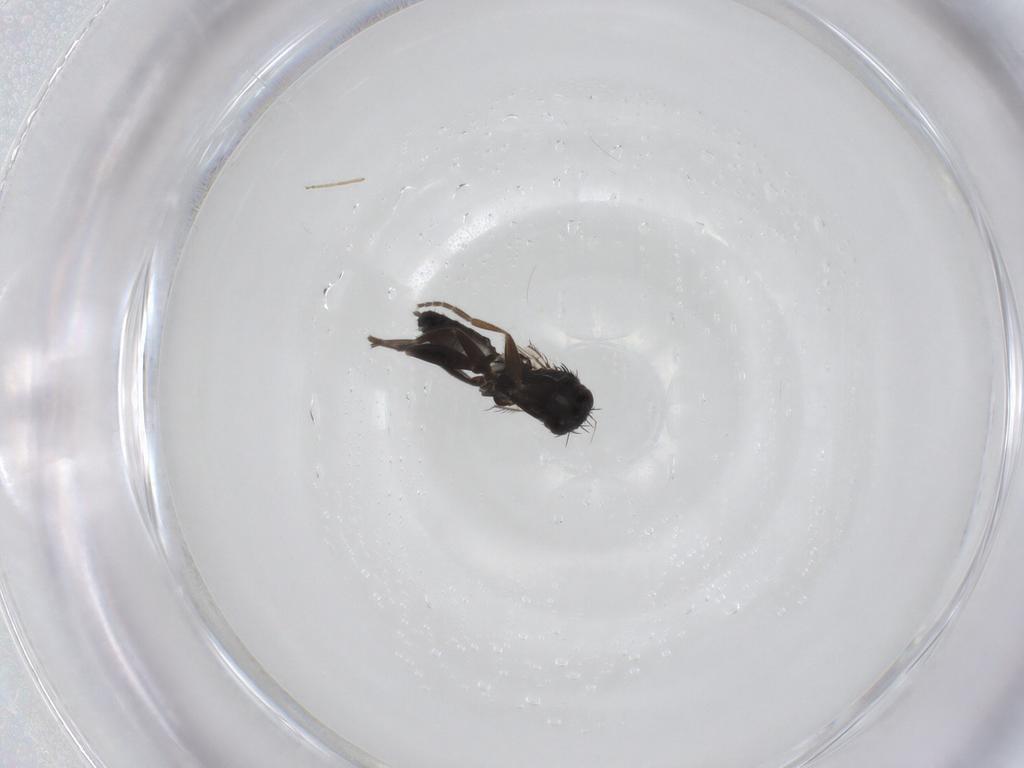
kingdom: Animalia
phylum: Arthropoda
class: Insecta
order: Diptera
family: Phoridae
